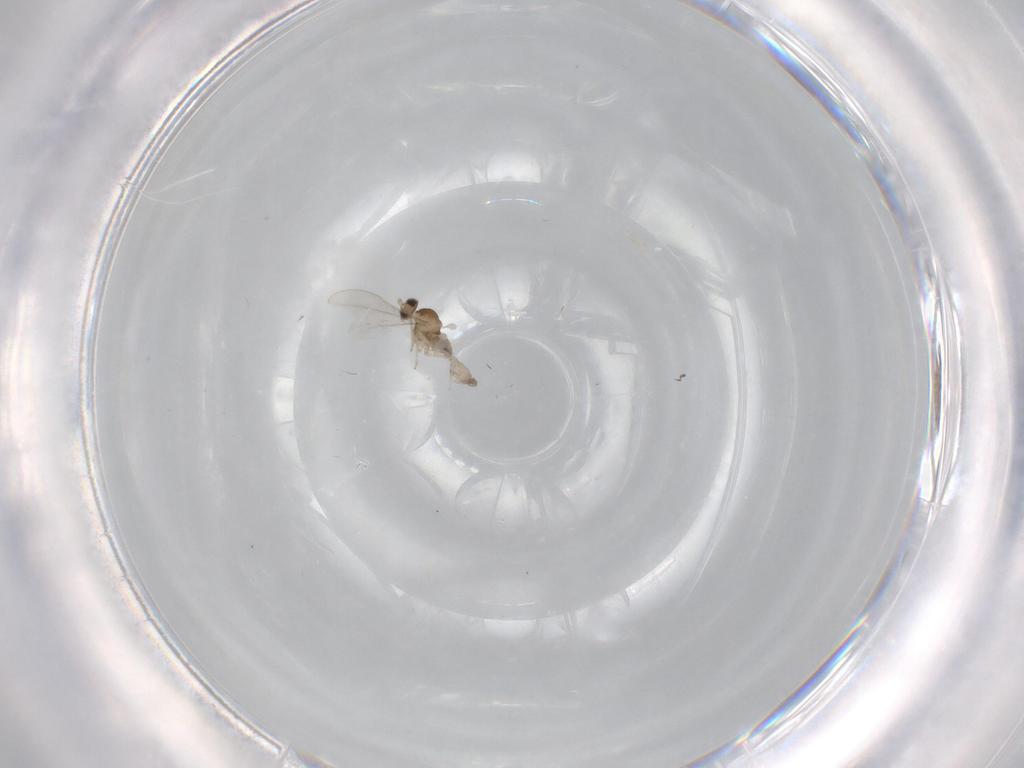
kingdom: Animalia
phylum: Arthropoda
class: Insecta
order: Diptera
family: Cecidomyiidae
